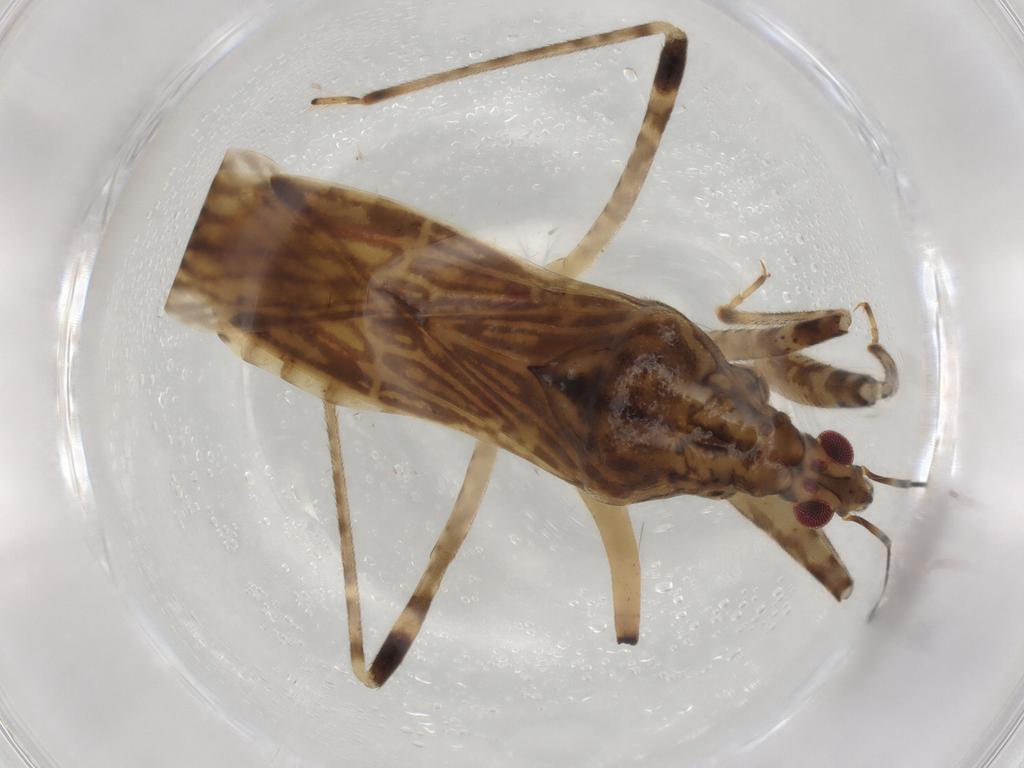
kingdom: Animalia
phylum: Arthropoda
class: Insecta
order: Hemiptera
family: Nabidae
